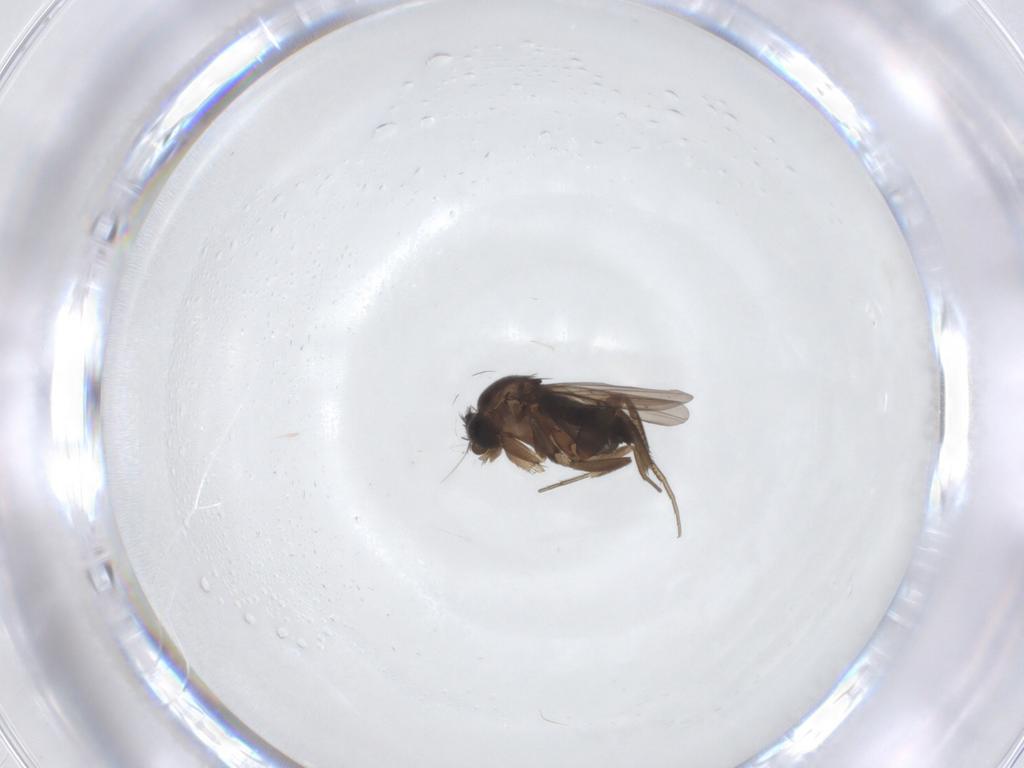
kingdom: Animalia
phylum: Arthropoda
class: Insecta
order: Diptera
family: Phoridae
